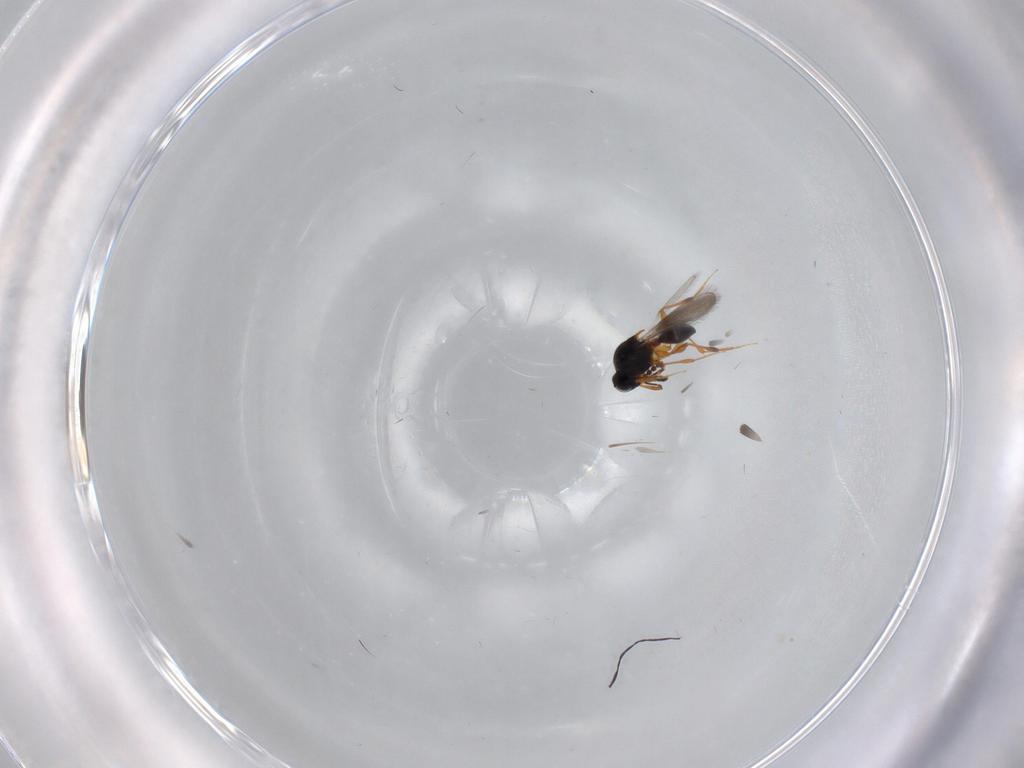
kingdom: Animalia
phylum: Arthropoda
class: Insecta
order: Hymenoptera
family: Platygastridae
